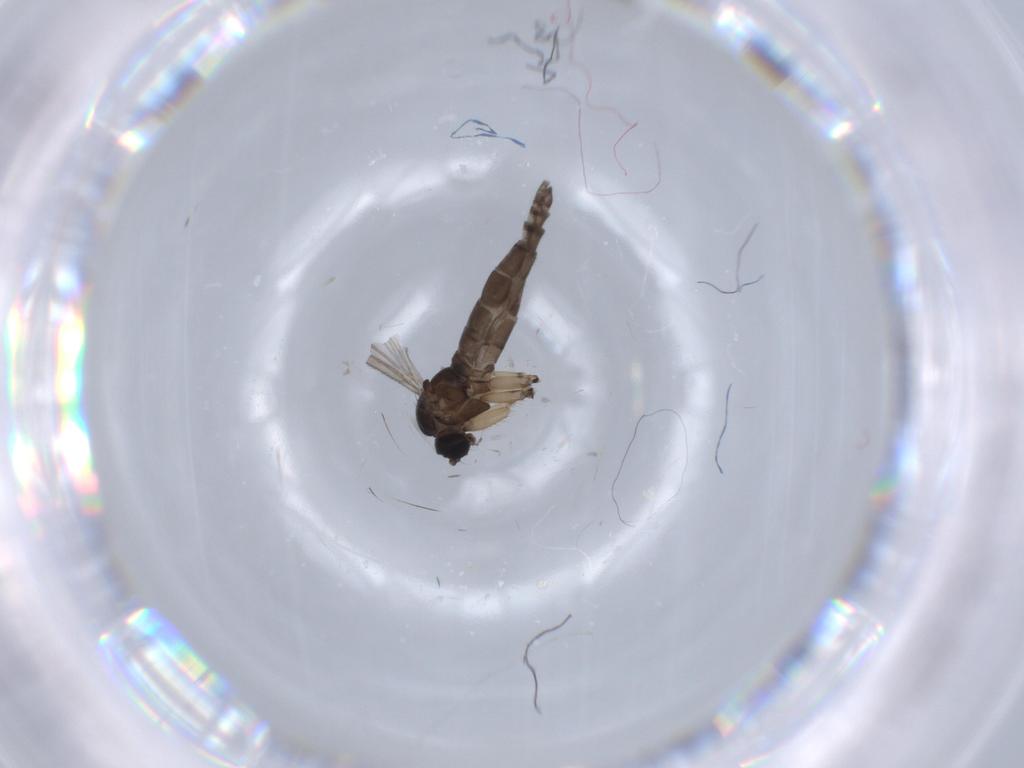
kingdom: Animalia
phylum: Arthropoda
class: Insecta
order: Diptera
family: Sciaridae
